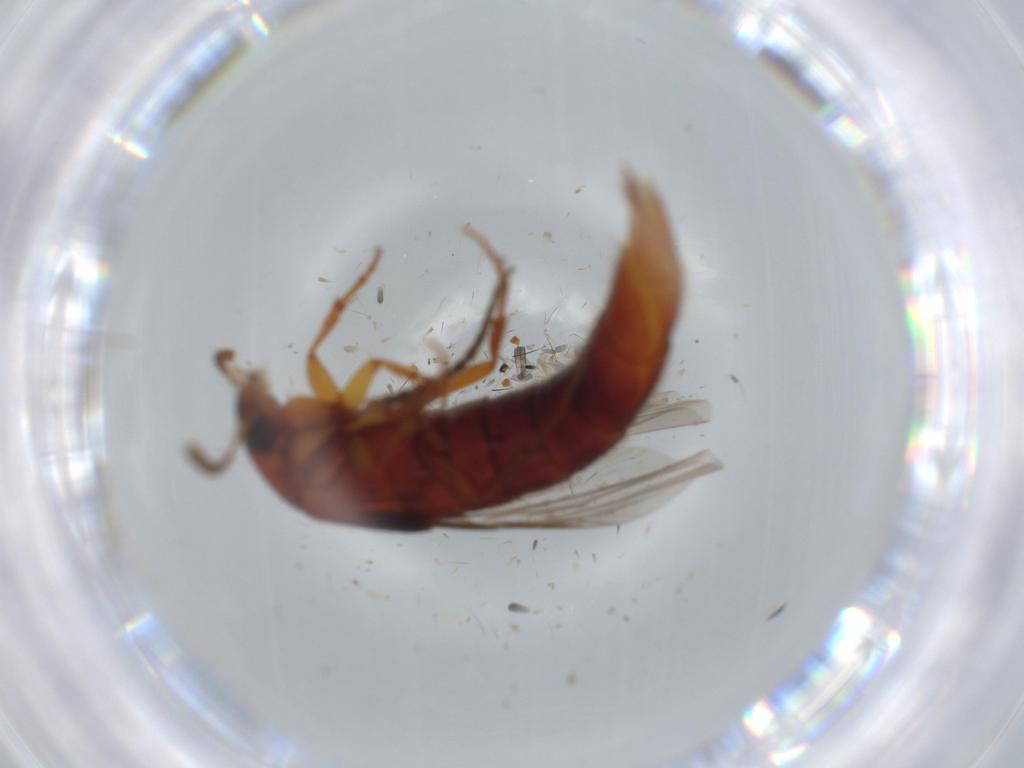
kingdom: Animalia
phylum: Arthropoda
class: Insecta
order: Coleoptera
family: Staphylinidae
